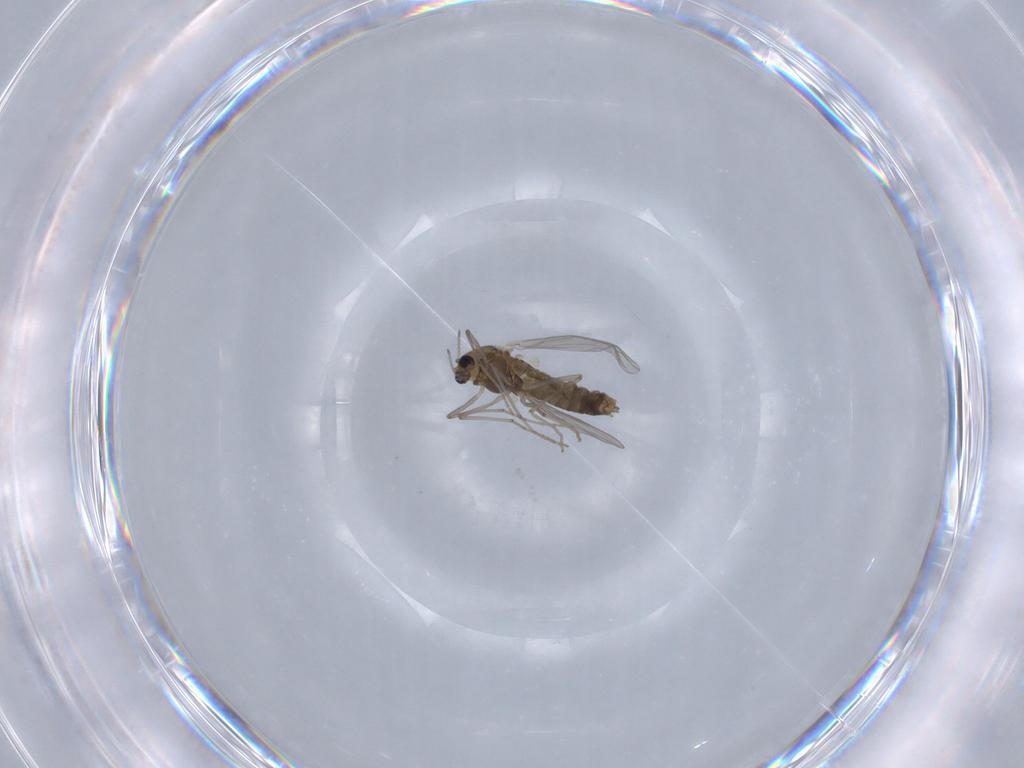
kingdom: Animalia
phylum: Arthropoda
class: Insecta
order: Diptera
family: Chironomidae
